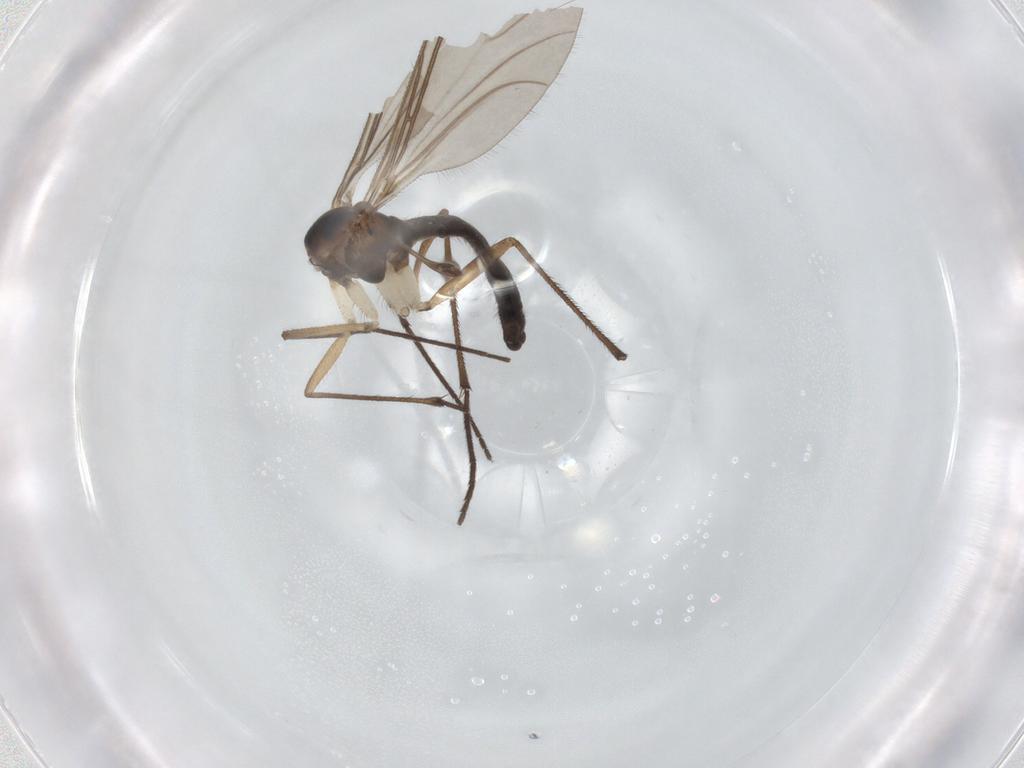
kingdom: Animalia
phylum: Arthropoda
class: Insecta
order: Diptera
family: Sciaridae
